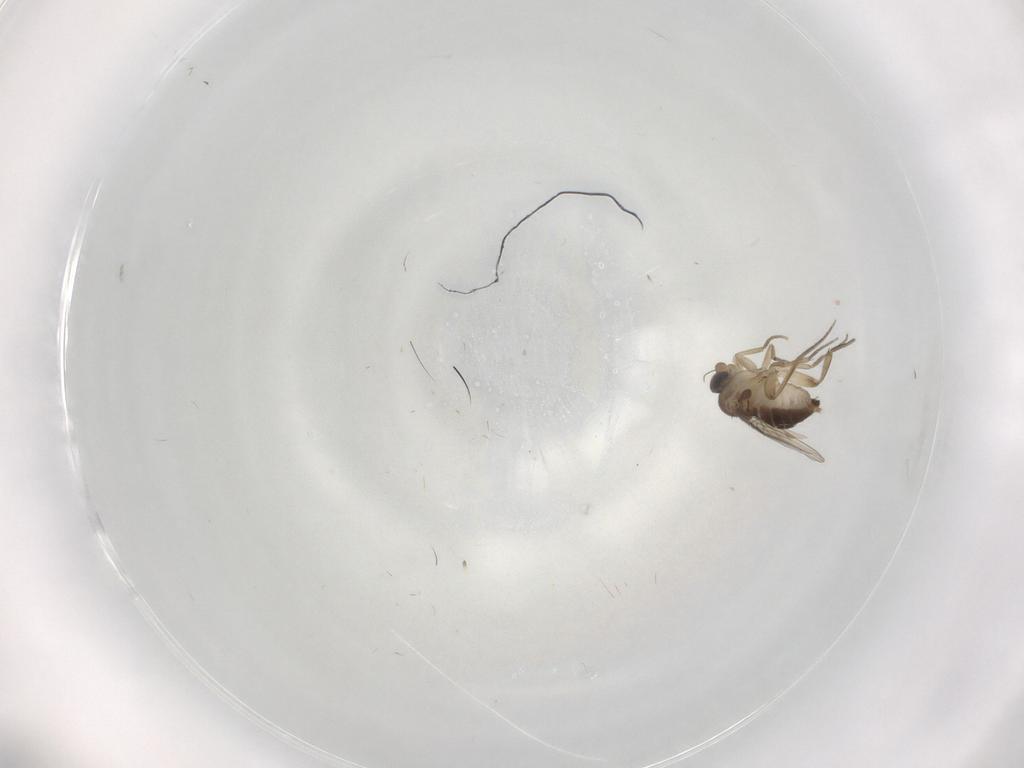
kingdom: Animalia
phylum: Arthropoda
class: Insecta
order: Diptera
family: Phoridae
